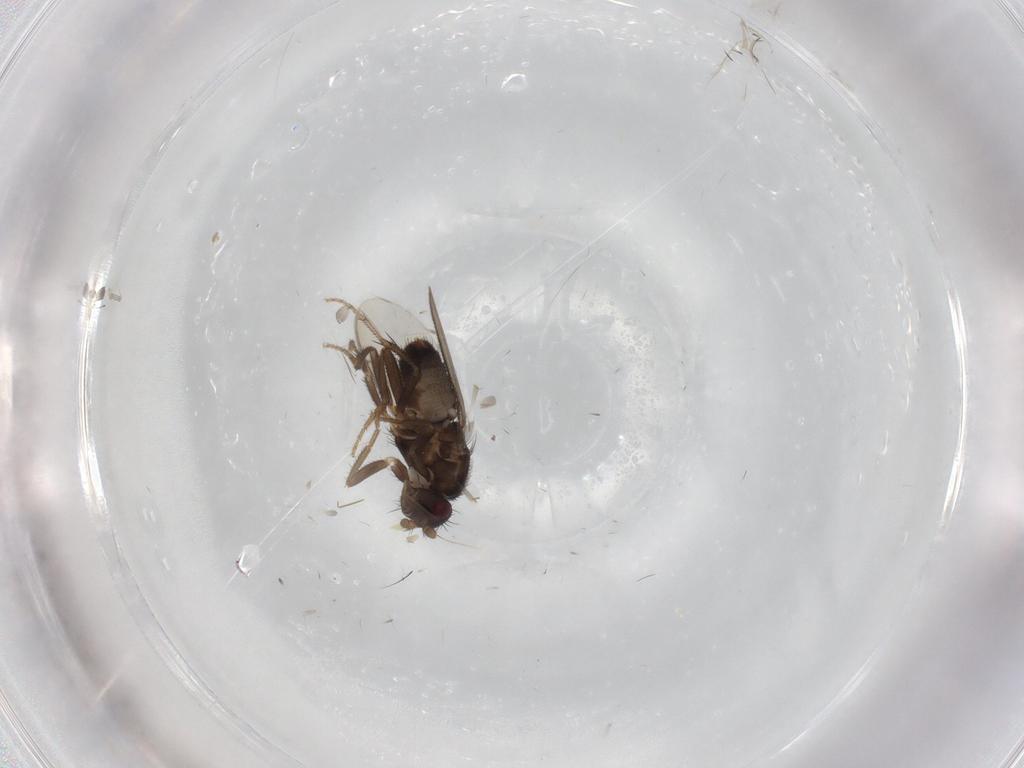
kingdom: Animalia
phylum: Arthropoda
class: Insecta
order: Diptera
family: Sphaeroceridae
